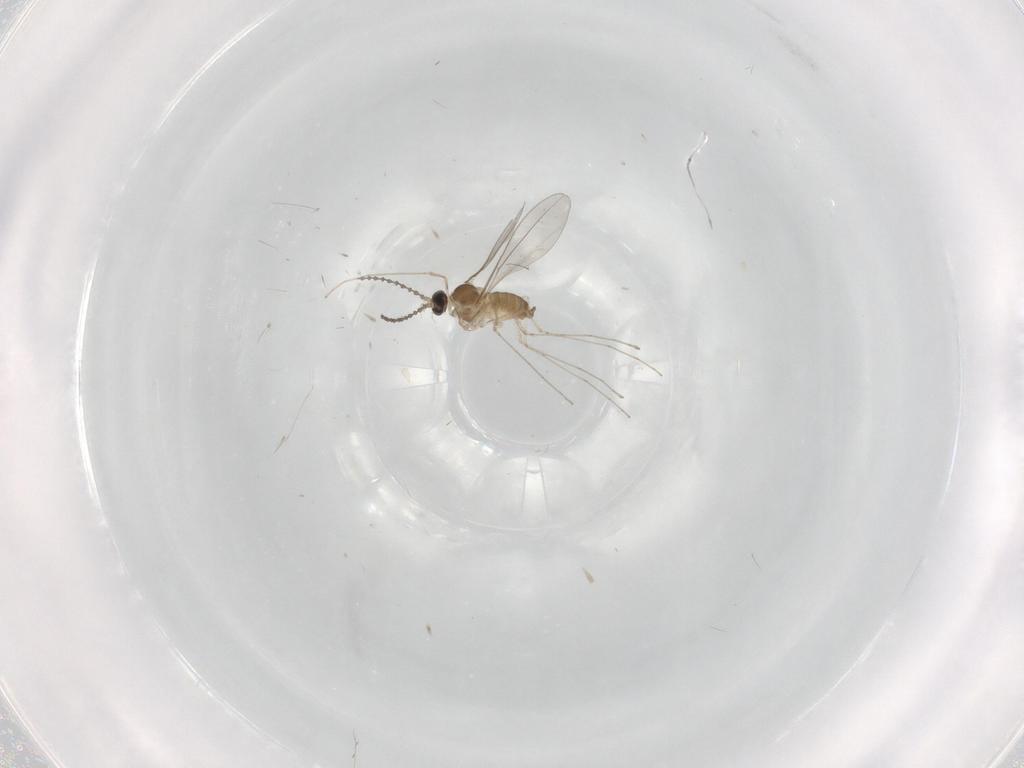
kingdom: Animalia
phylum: Arthropoda
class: Insecta
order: Diptera
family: Cecidomyiidae
